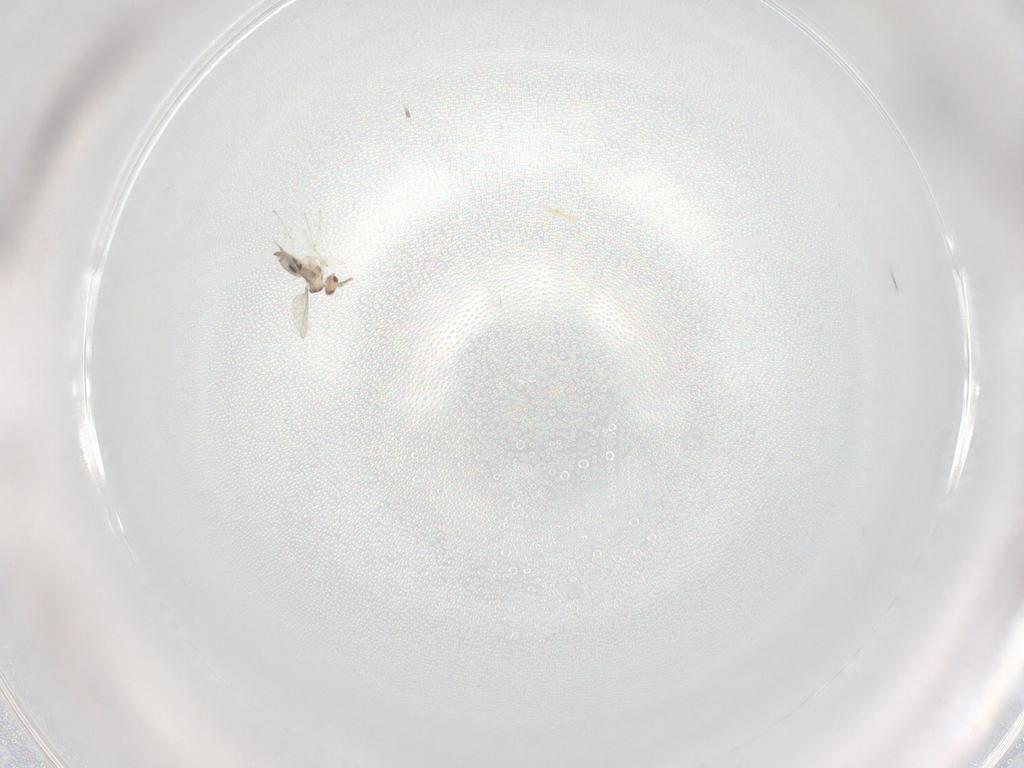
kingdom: Animalia
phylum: Arthropoda
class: Insecta
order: Diptera
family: Cecidomyiidae
